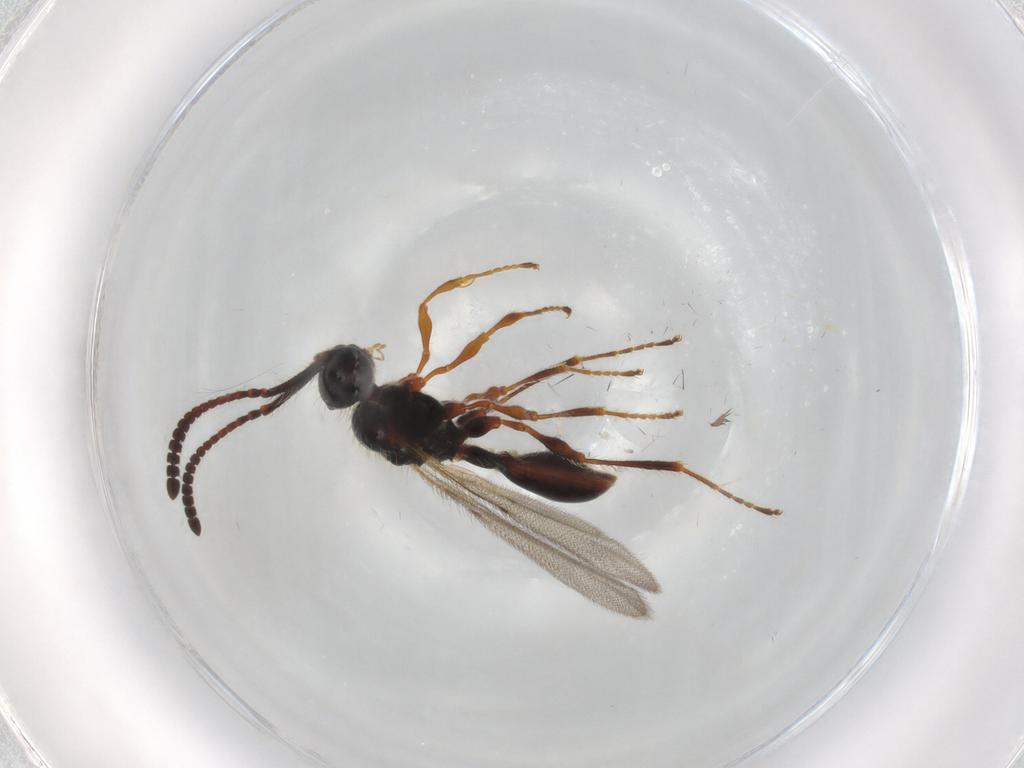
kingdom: Animalia
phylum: Arthropoda
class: Insecta
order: Hymenoptera
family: Diapriidae
